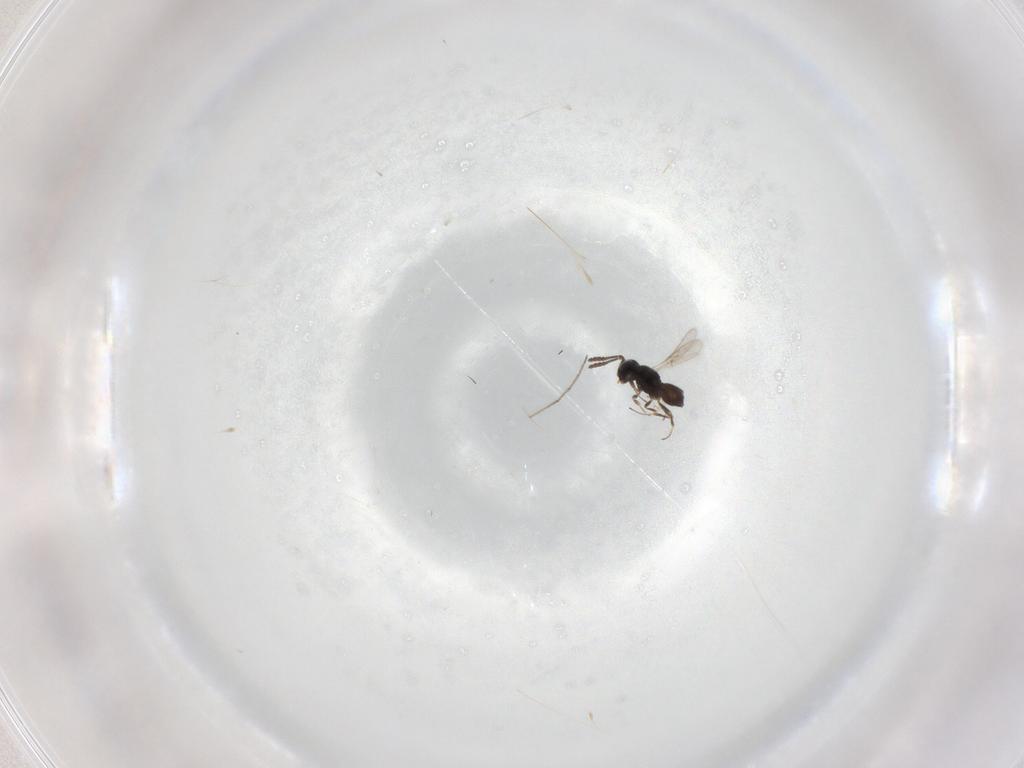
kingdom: Animalia
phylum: Arthropoda
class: Insecta
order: Hymenoptera
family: Scelionidae
